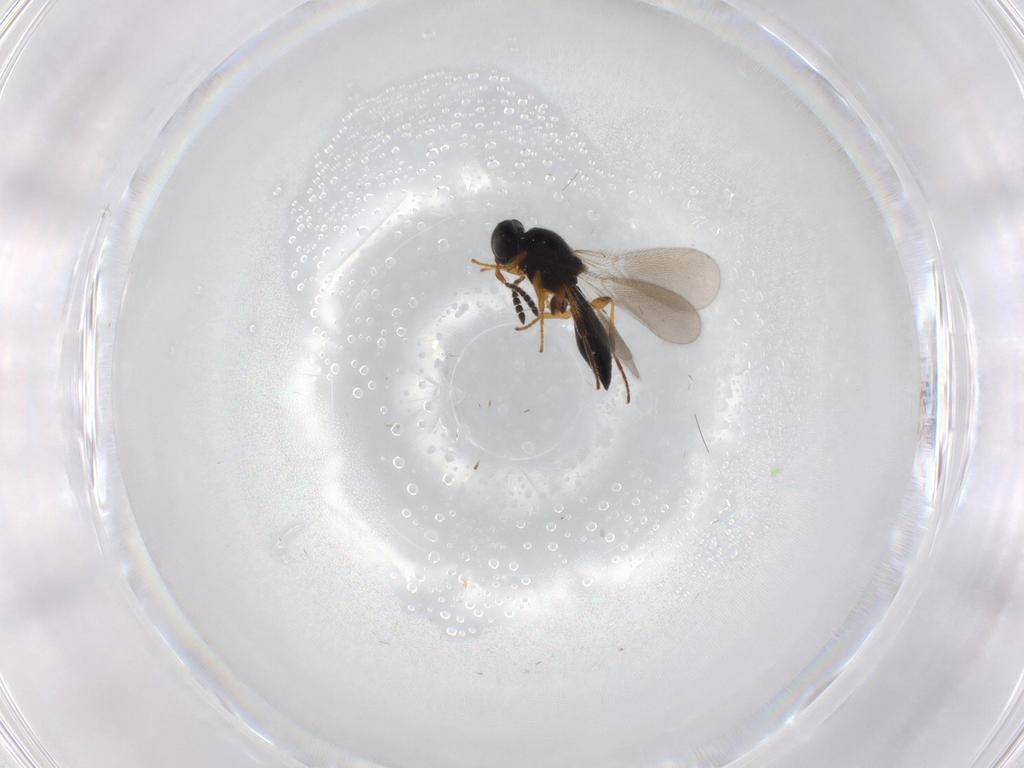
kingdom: Animalia
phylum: Arthropoda
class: Insecta
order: Hymenoptera
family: Platygastridae
